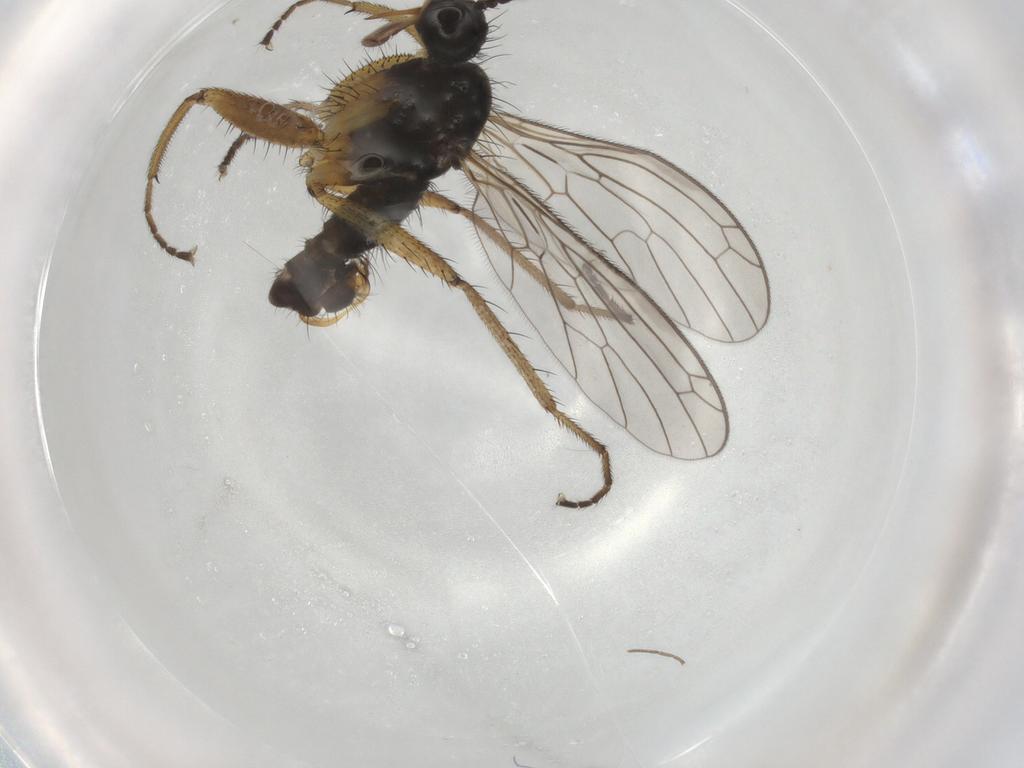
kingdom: Animalia
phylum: Arthropoda
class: Insecta
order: Diptera
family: Empididae
